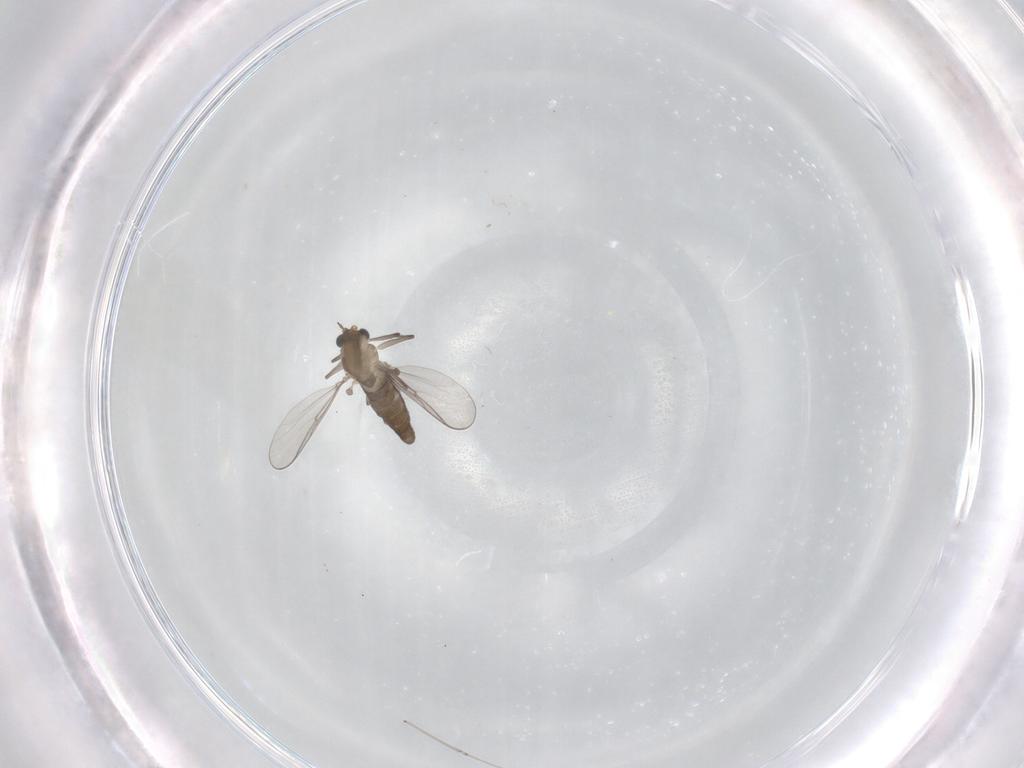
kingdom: Animalia
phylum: Arthropoda
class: Insecta
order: Diptera
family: Cecidomyiidae
